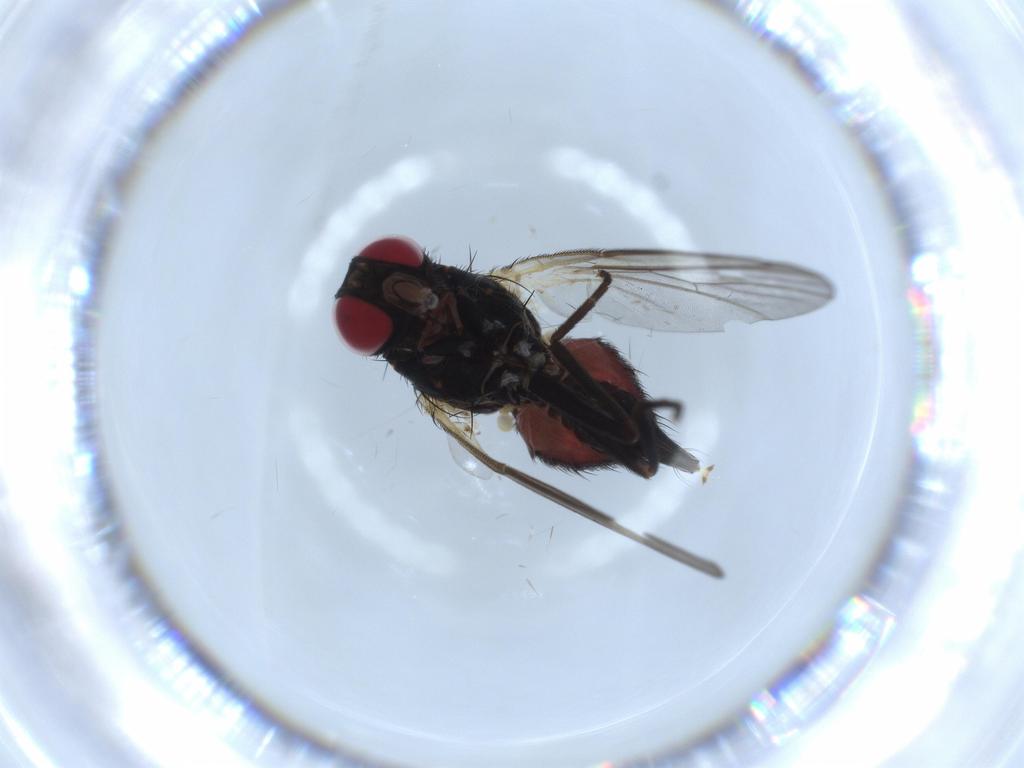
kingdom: Animalia
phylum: Arthropoda
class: Insecta
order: Diptera
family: Agromyzidae
